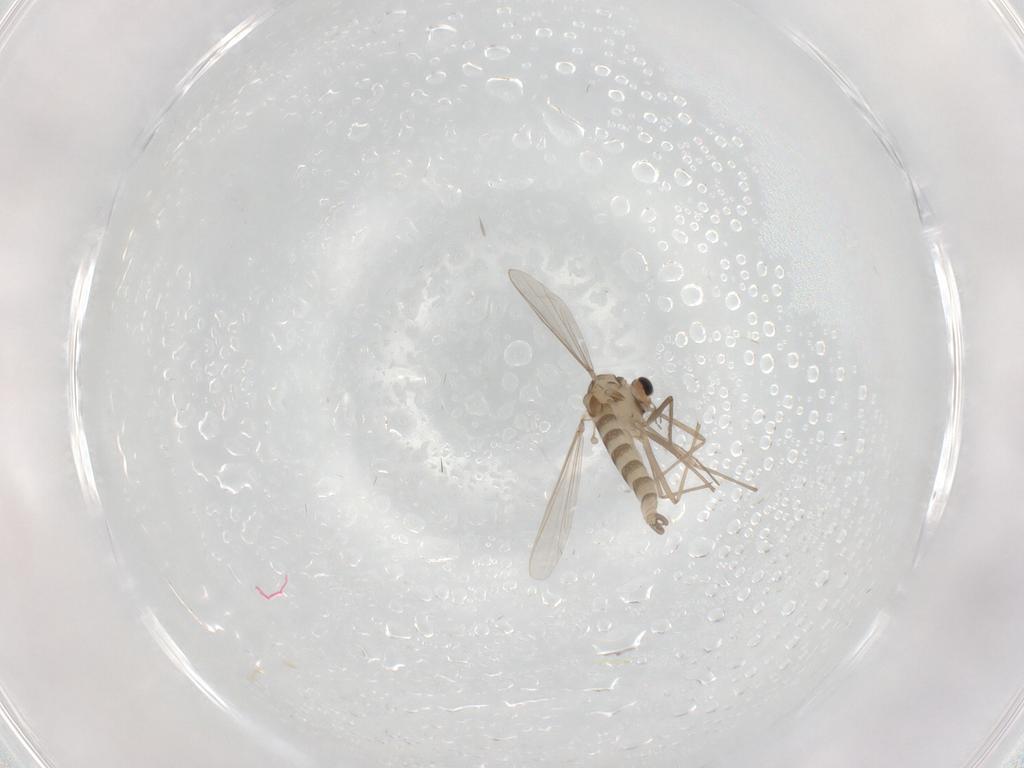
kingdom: Animalia
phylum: Arthropoda
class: Insecta
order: Diptera
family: Chironomidae
